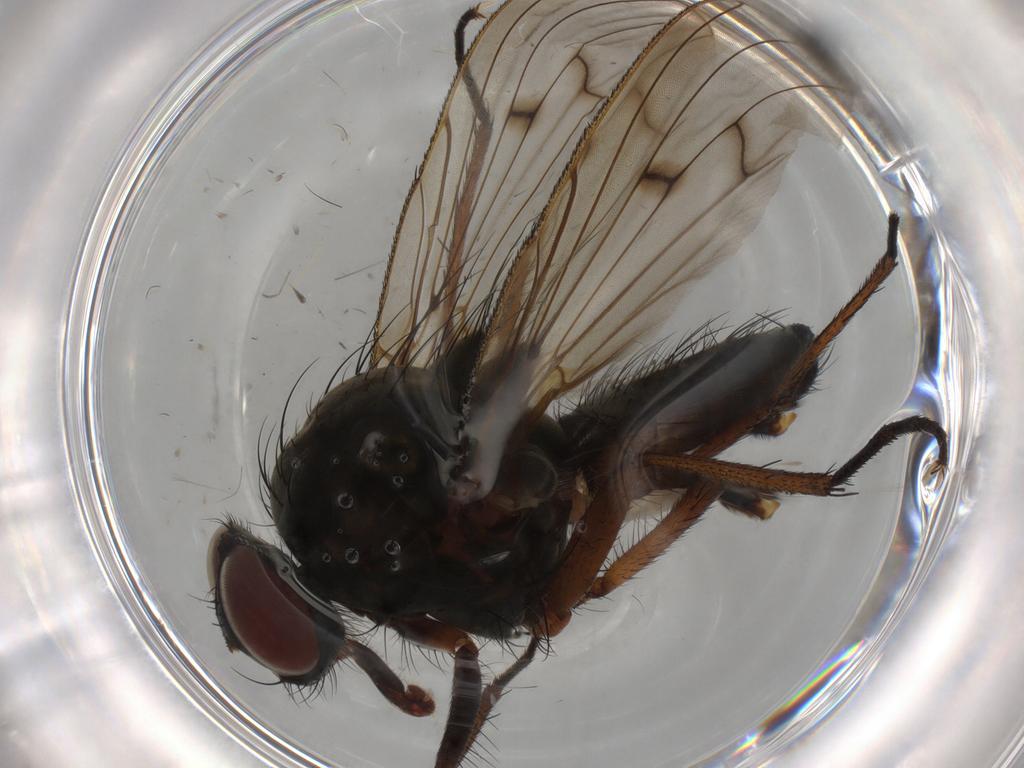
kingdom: Animalia
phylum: Arthropoda
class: Insecta
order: Diptera
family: Anthomyiidae
